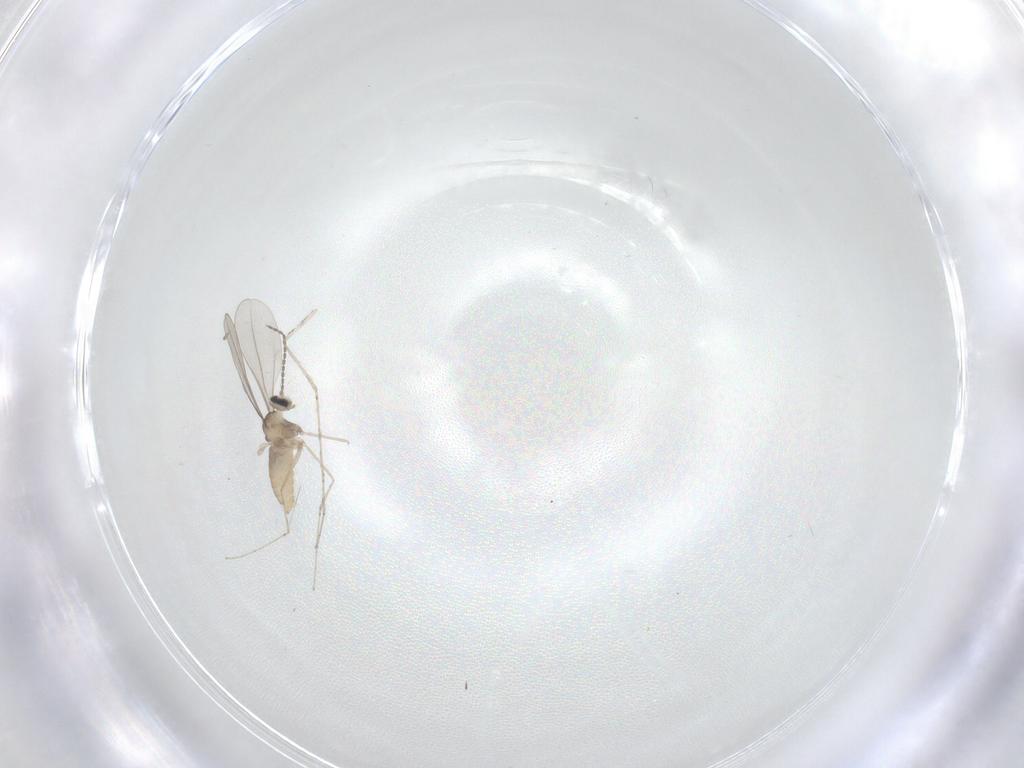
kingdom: Animalia
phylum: Arthropoda
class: Insecta
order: Diptera
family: Cecidomyiidae
